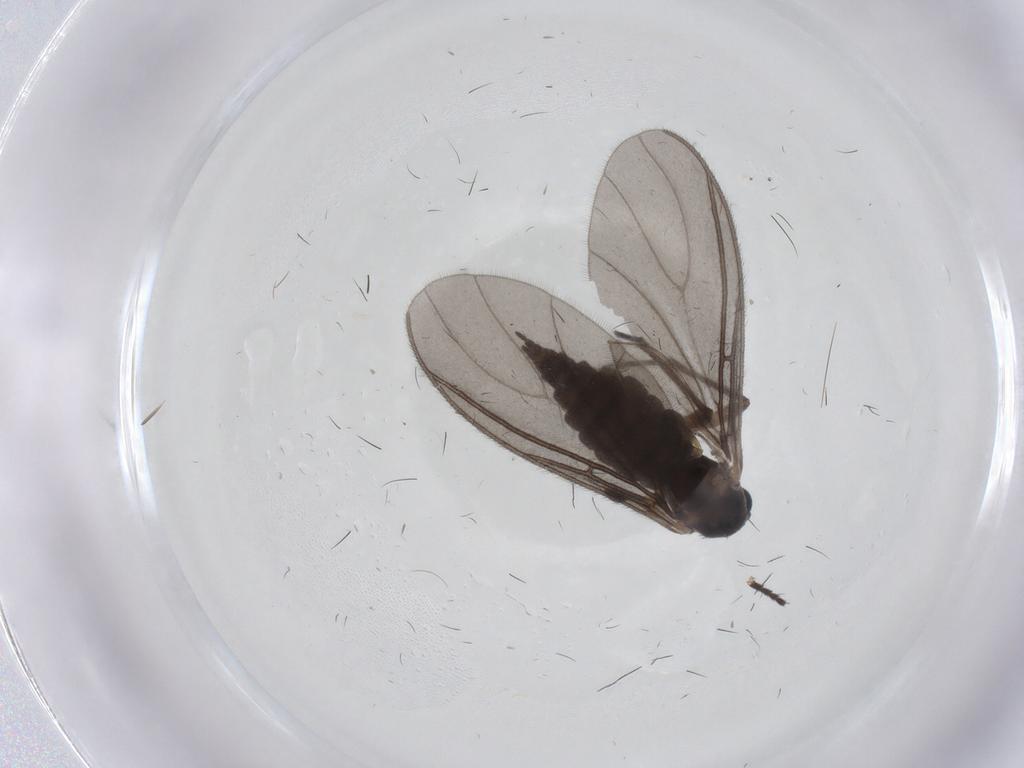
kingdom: Animalia
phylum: Arthropoda
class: Insecta
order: Diptera
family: Sciaridae
